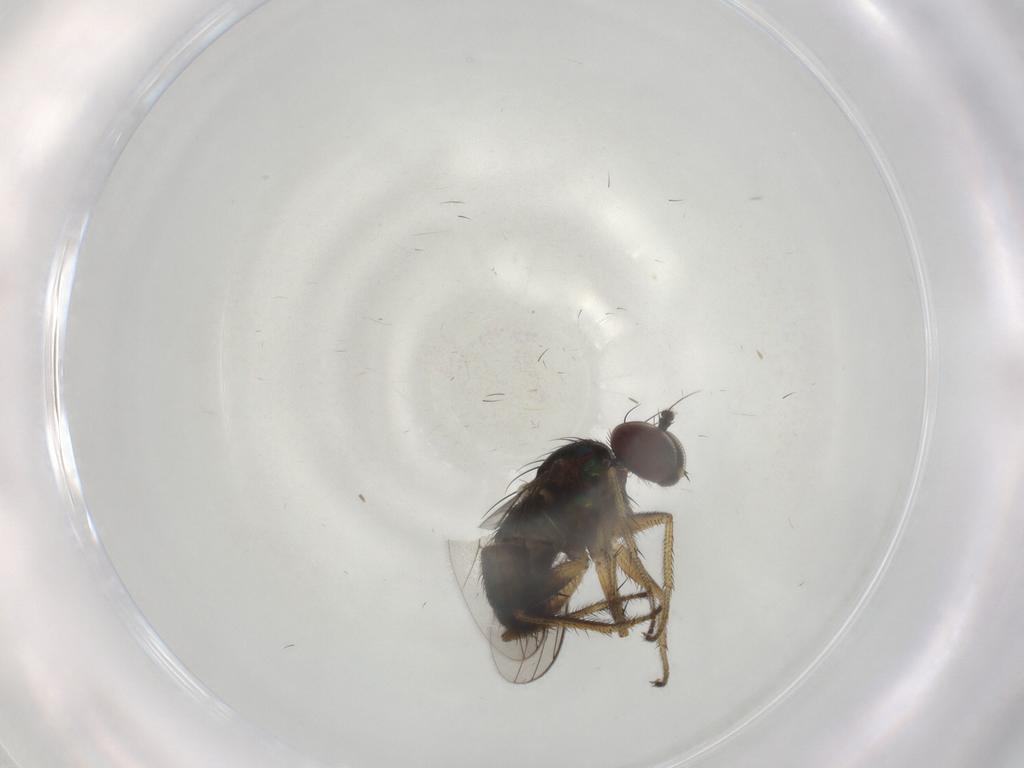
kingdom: Animalia
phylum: Arthropoda
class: Insecta
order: Diptera
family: Dolichopodidae
